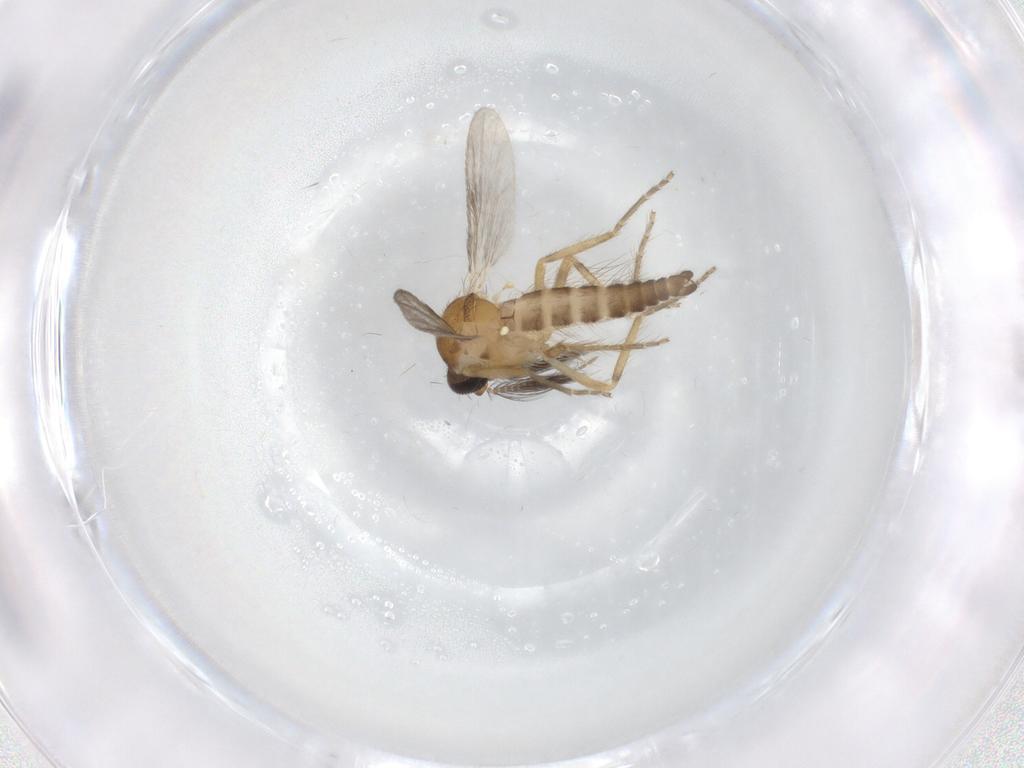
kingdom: Animalia
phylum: Arthropoda
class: Insecta
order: Diptera
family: Ceratopogonidae
